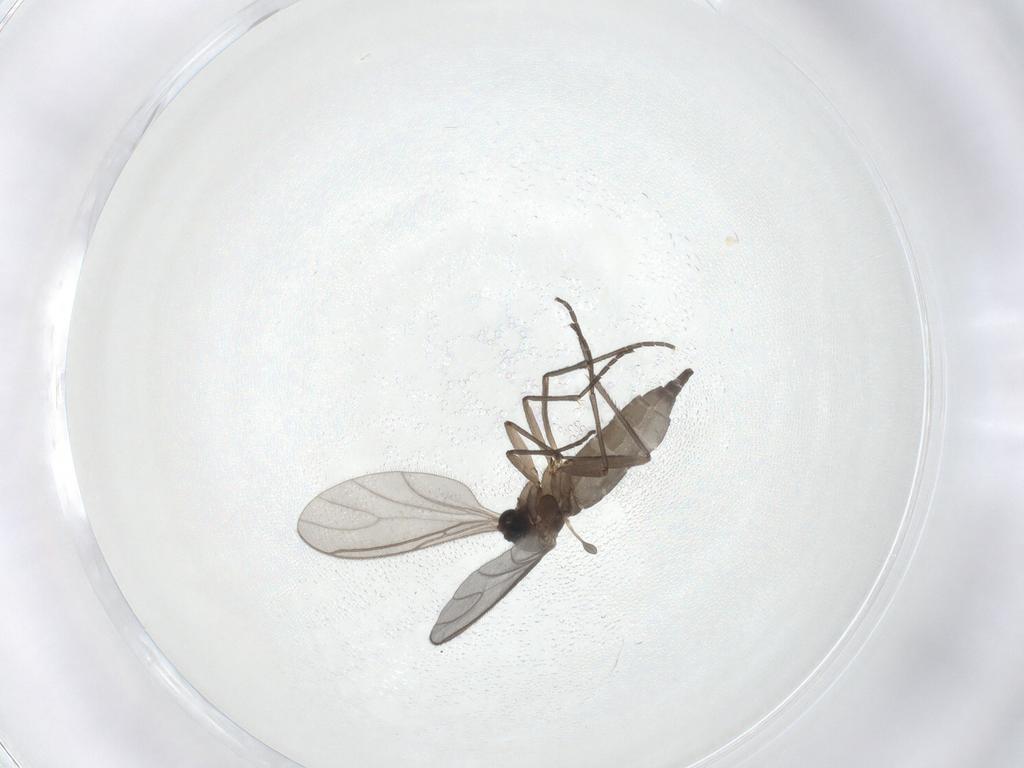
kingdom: Animalia
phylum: Arthropoda
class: Insecta
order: Diptera
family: Sciaridae
